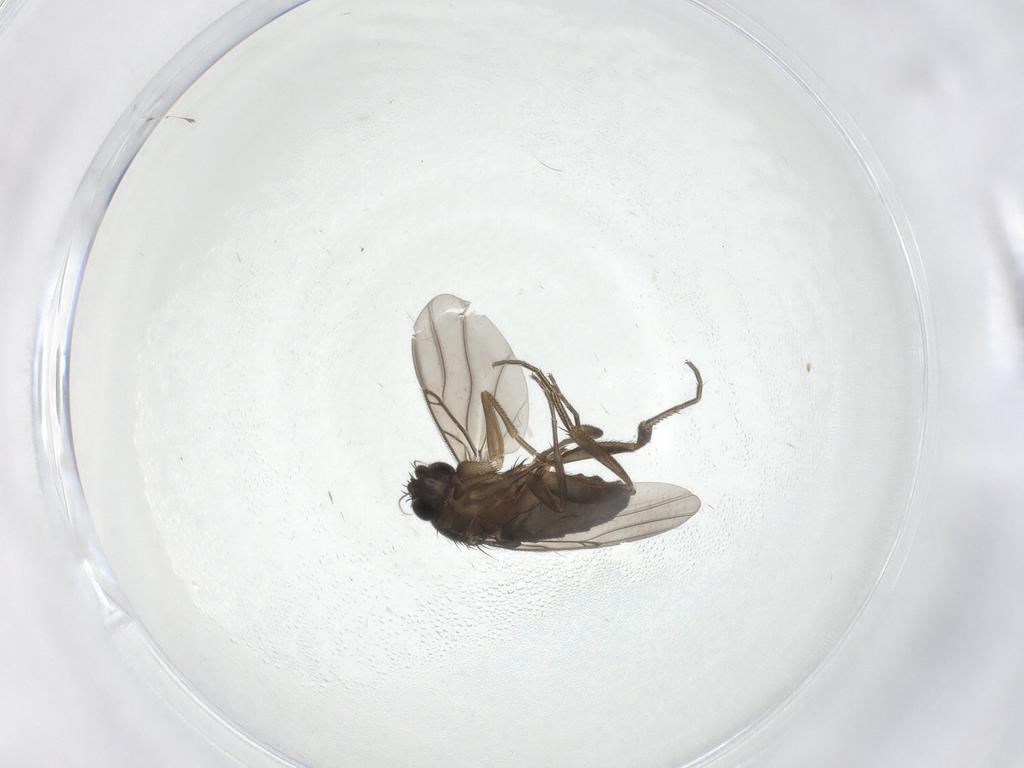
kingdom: Animalia
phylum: Arthropoda
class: Insecta
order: Diptera
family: Phoridae
